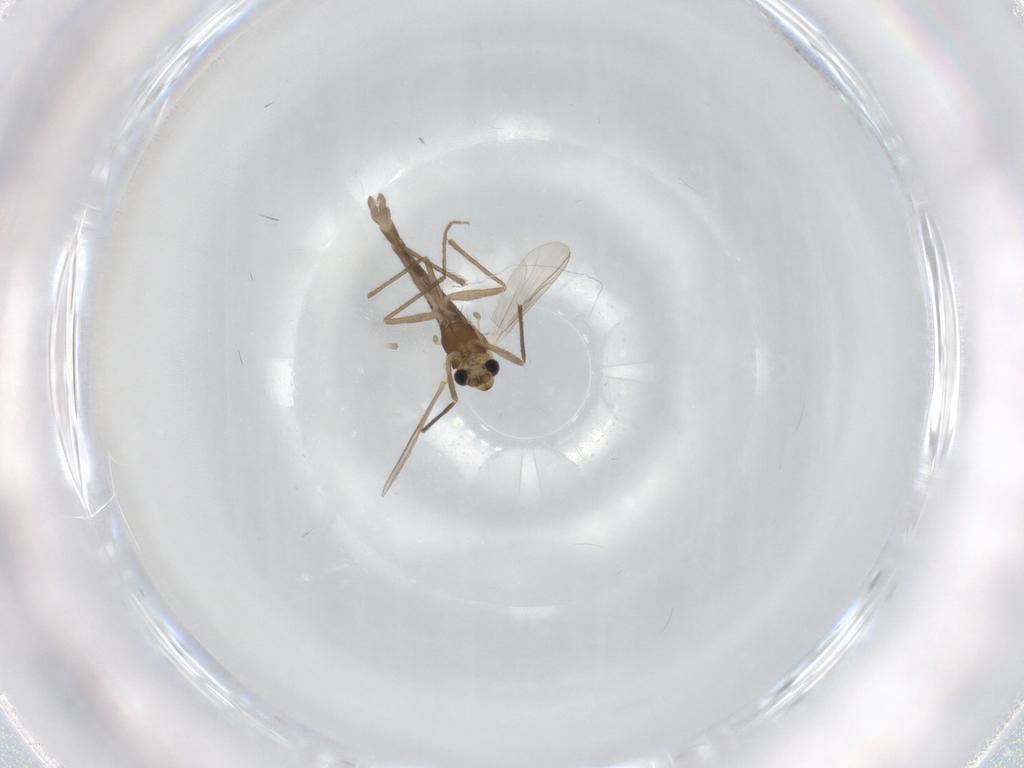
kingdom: Animalia
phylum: Arthropoda
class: Insecta
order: Diptera
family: Chironomidae
